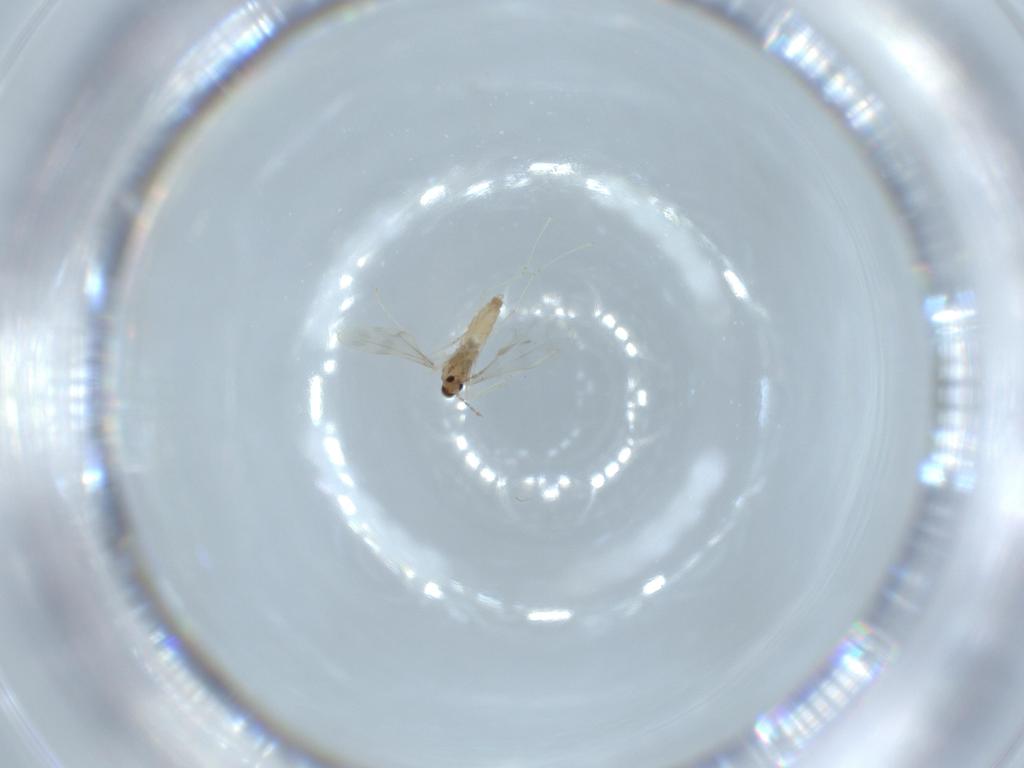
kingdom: Animalia
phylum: Arthropoda
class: Insecta
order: Diptera
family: Cecidomyiidae
